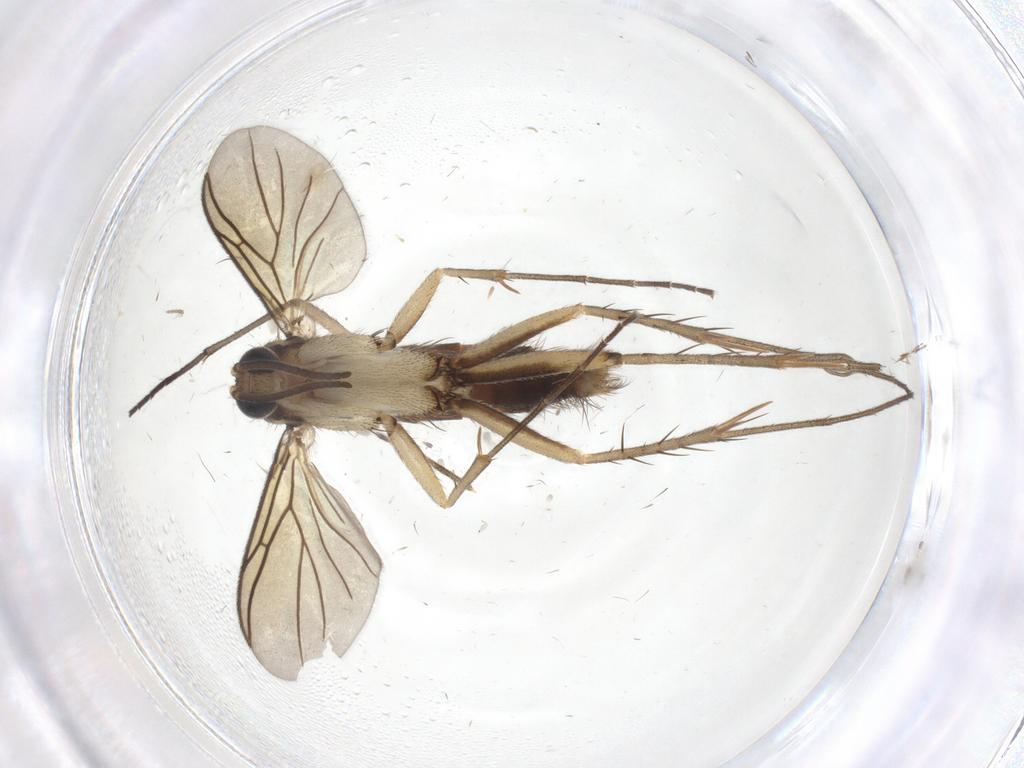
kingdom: Animalia
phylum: Arthropoda
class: Insecta
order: Diptera
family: Sciaridae
